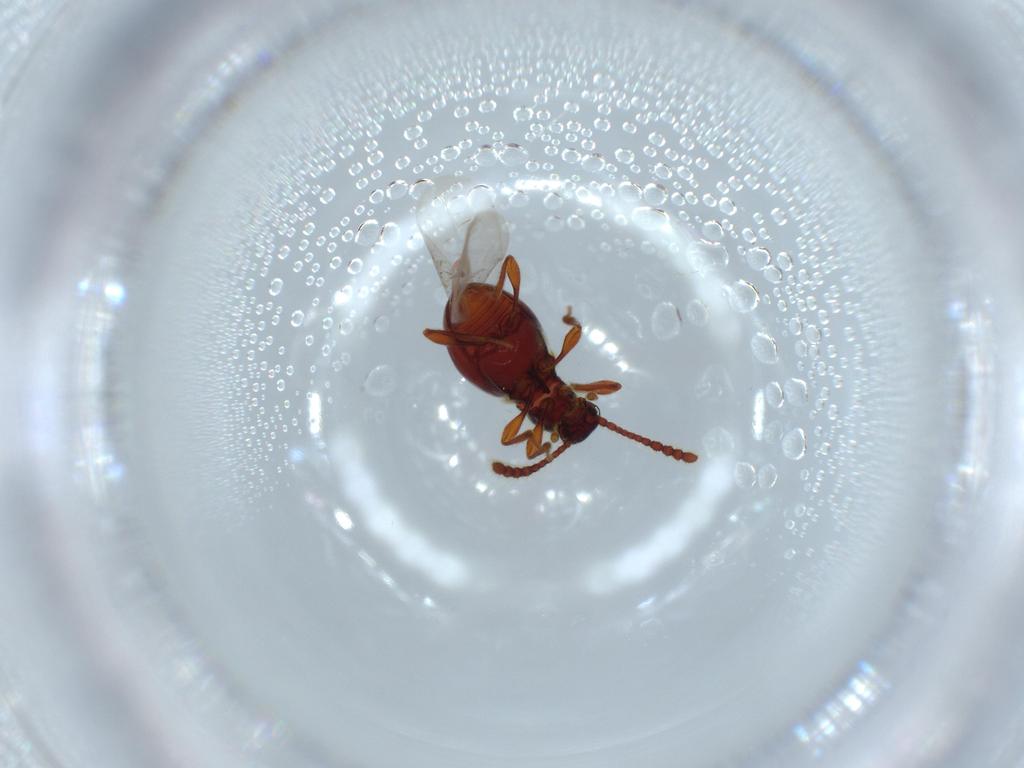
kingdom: Animalia
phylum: Arthropoda
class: Insecta
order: Coleoptera
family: Staphylinidae
